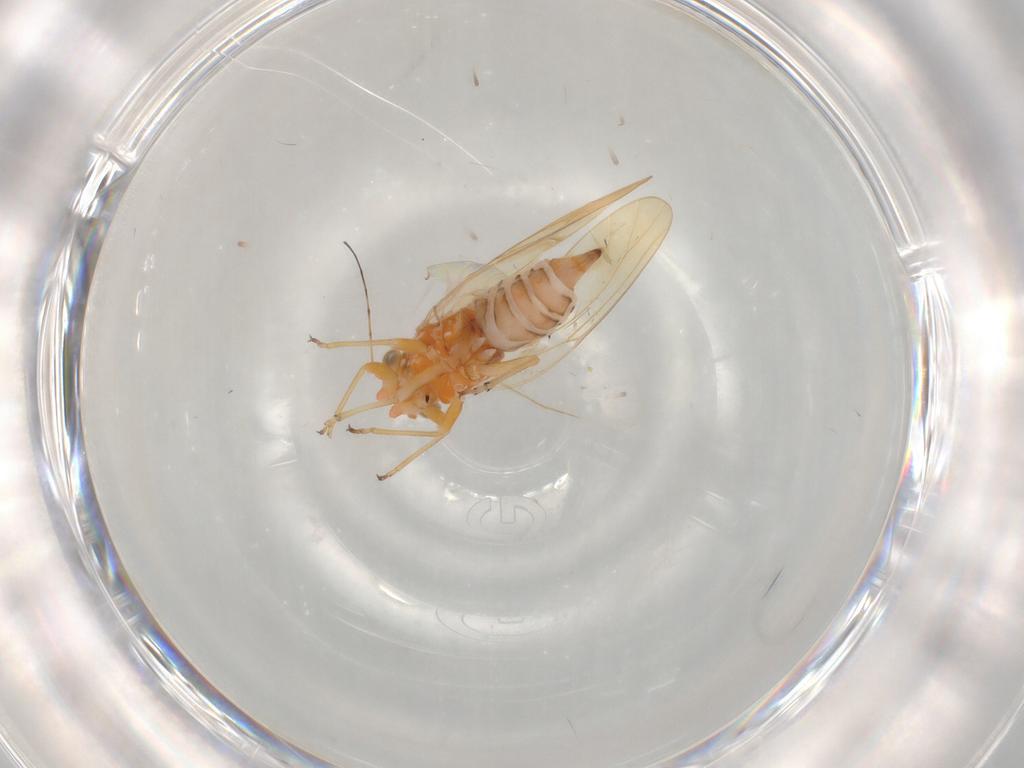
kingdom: Animalia
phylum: Arthropoda
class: Insecta
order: Hemiptera
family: Psyllidae
